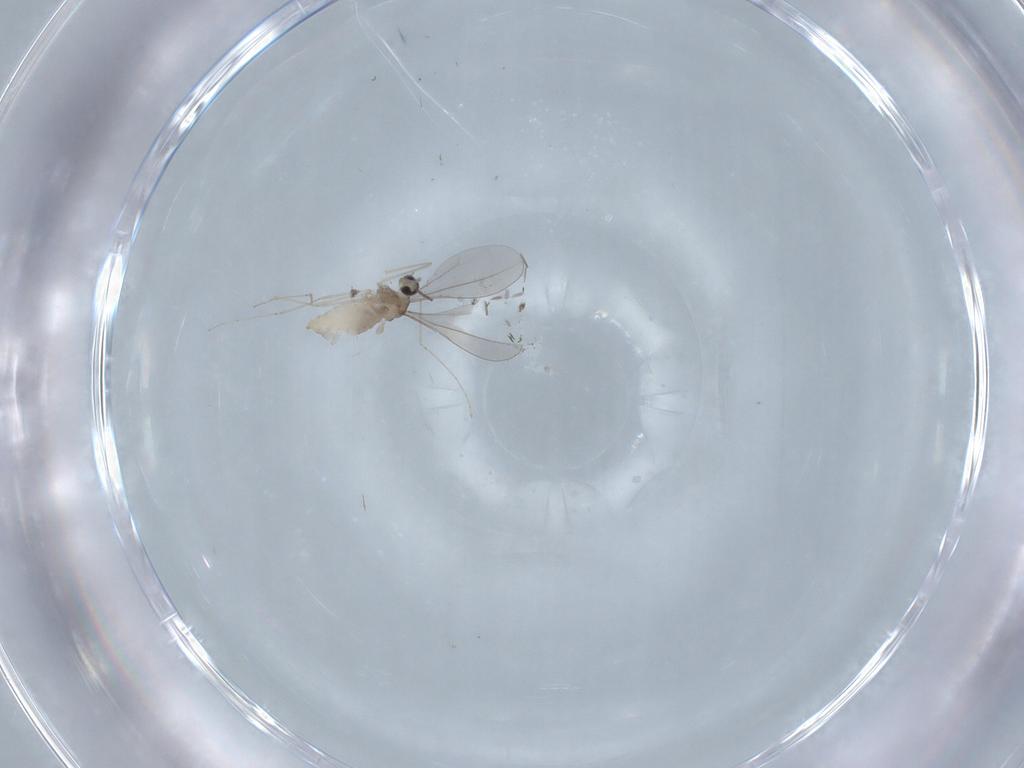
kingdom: Animalia
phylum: Arthropoda
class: Insecta
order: Diptera
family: Cecidomyiidae
